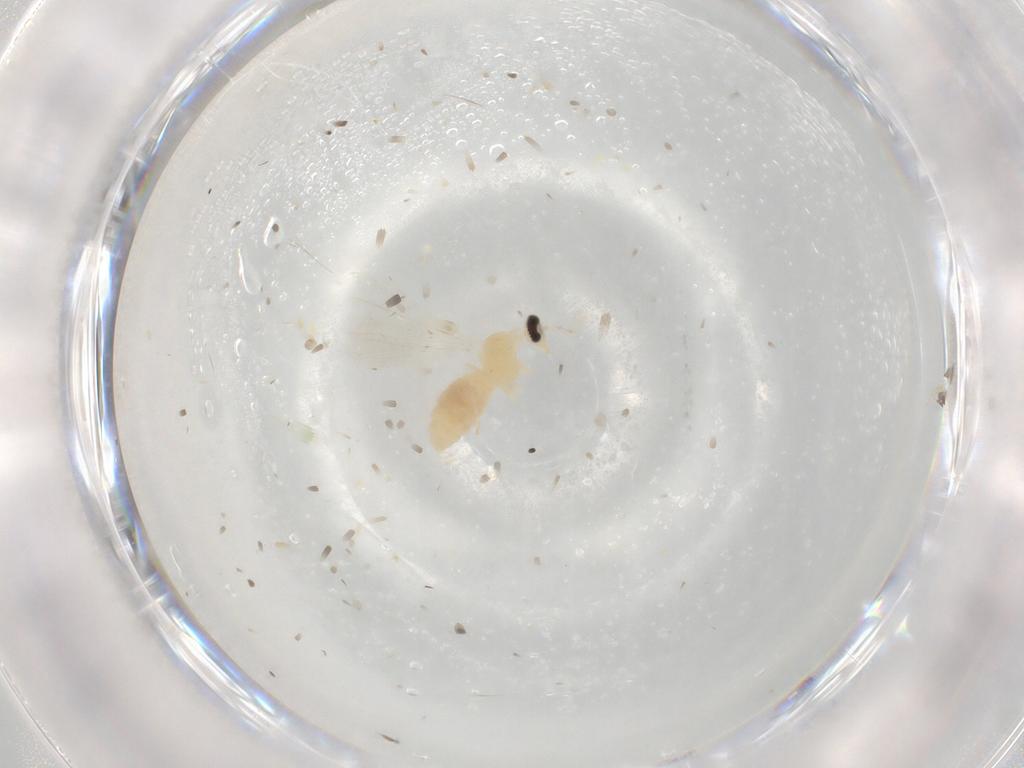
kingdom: Animalia
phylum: Arthropoda
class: Insecta
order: Diptera
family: Cecidomyiidae
